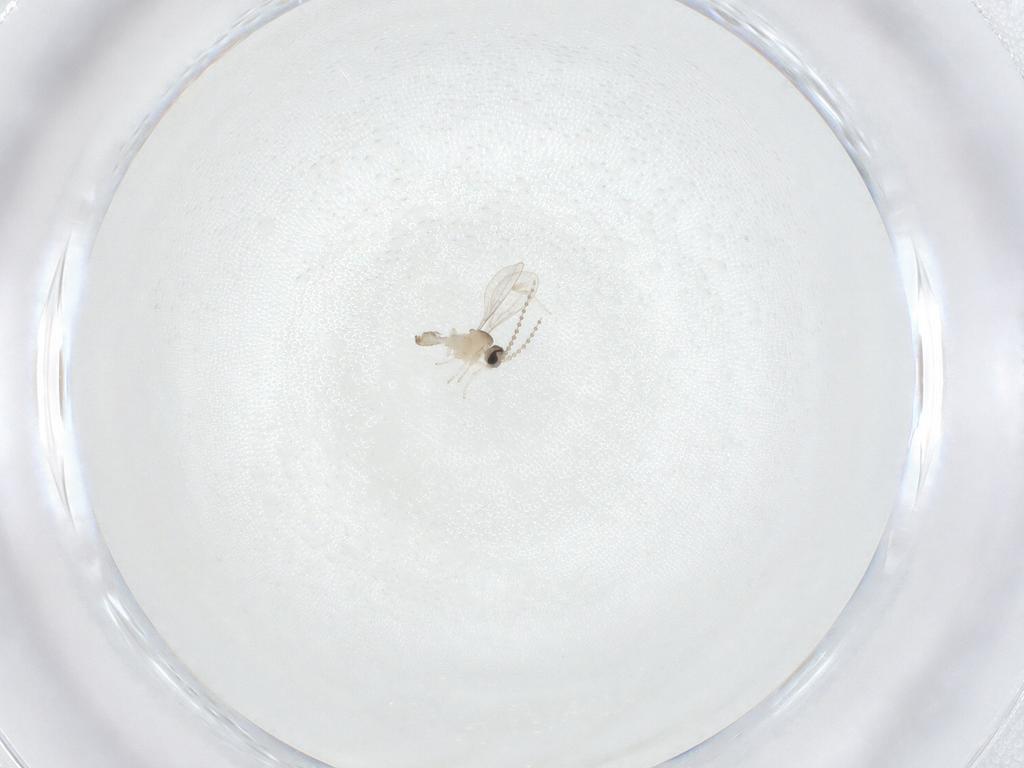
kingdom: Animalia
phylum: Arthropoda
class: Insecta
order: Diptera
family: Cecidomyiidae
